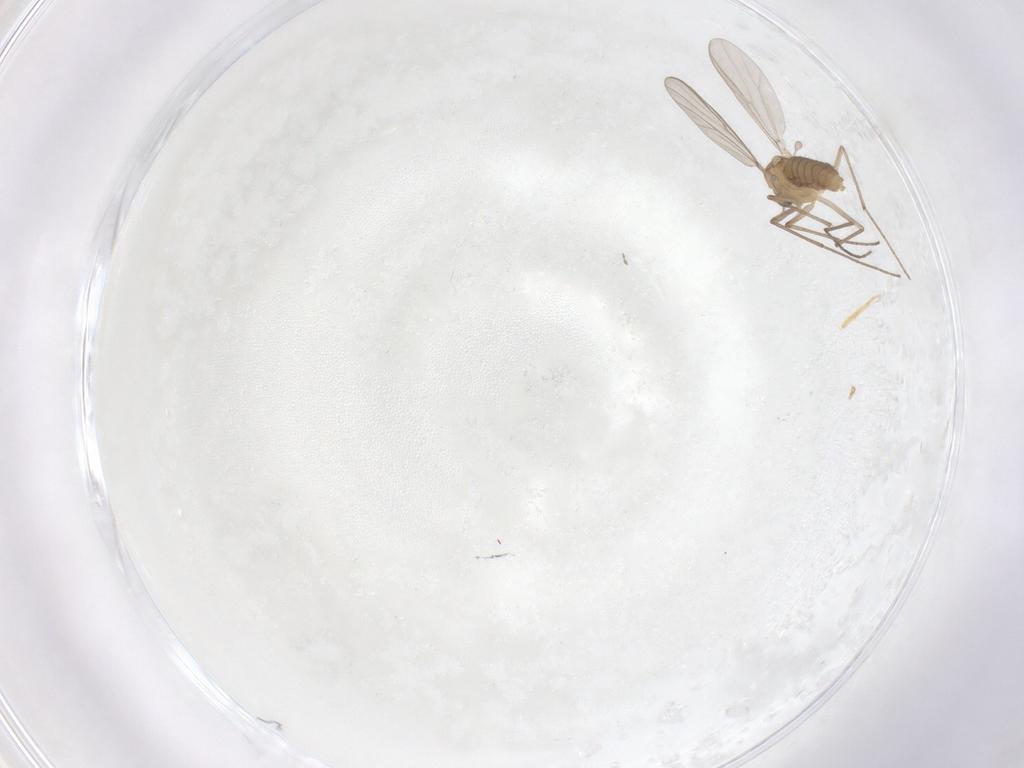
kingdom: Animalia
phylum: Arthropoda
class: Insecta
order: Diptera
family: Chironomidae
